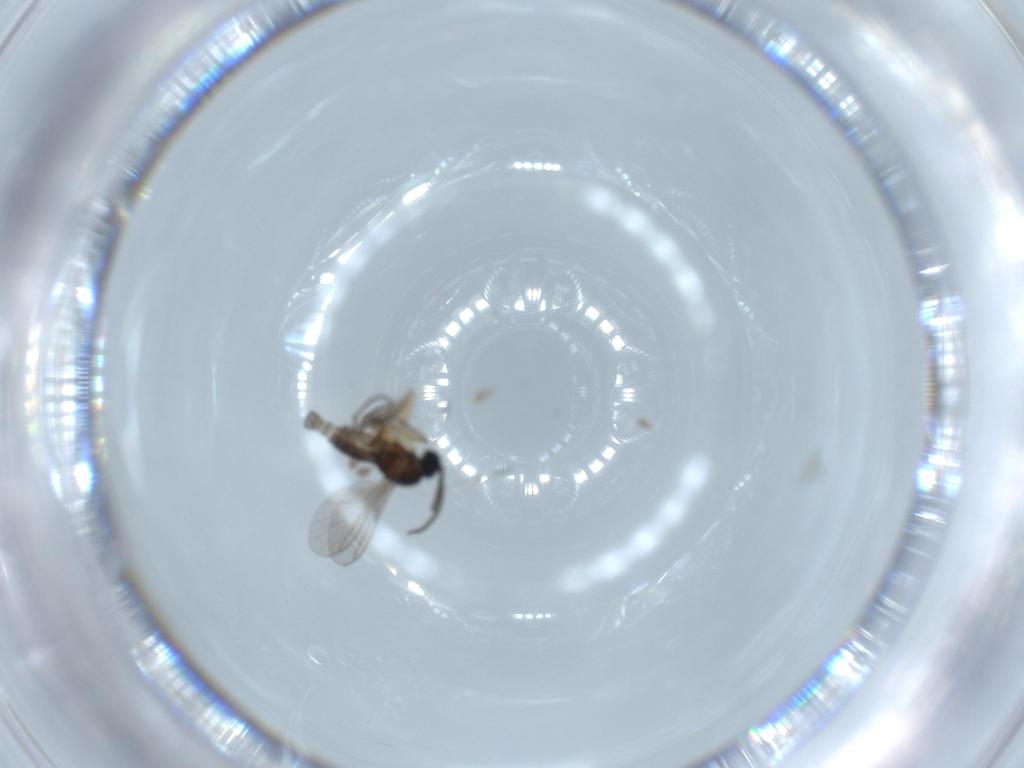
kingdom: Animalia
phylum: Arthropoda
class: Insecta
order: Diptera
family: Sciaridae
